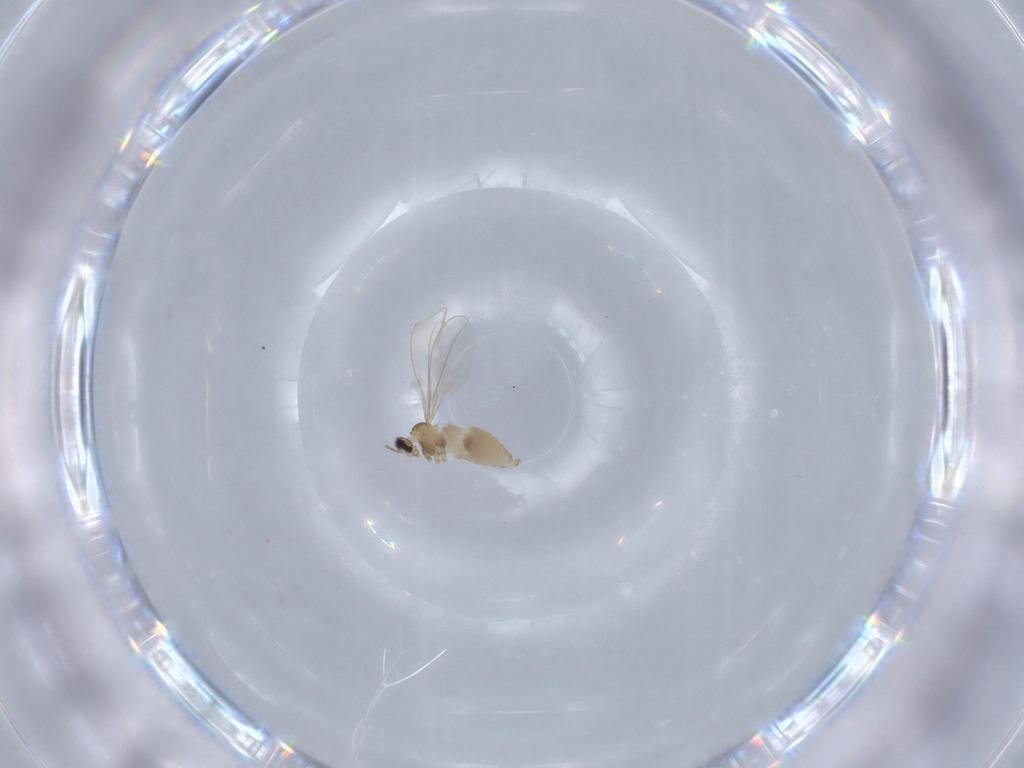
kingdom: Animalia
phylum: Arthropoda
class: Insecta
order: Diptera
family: Cecidomyiidae
